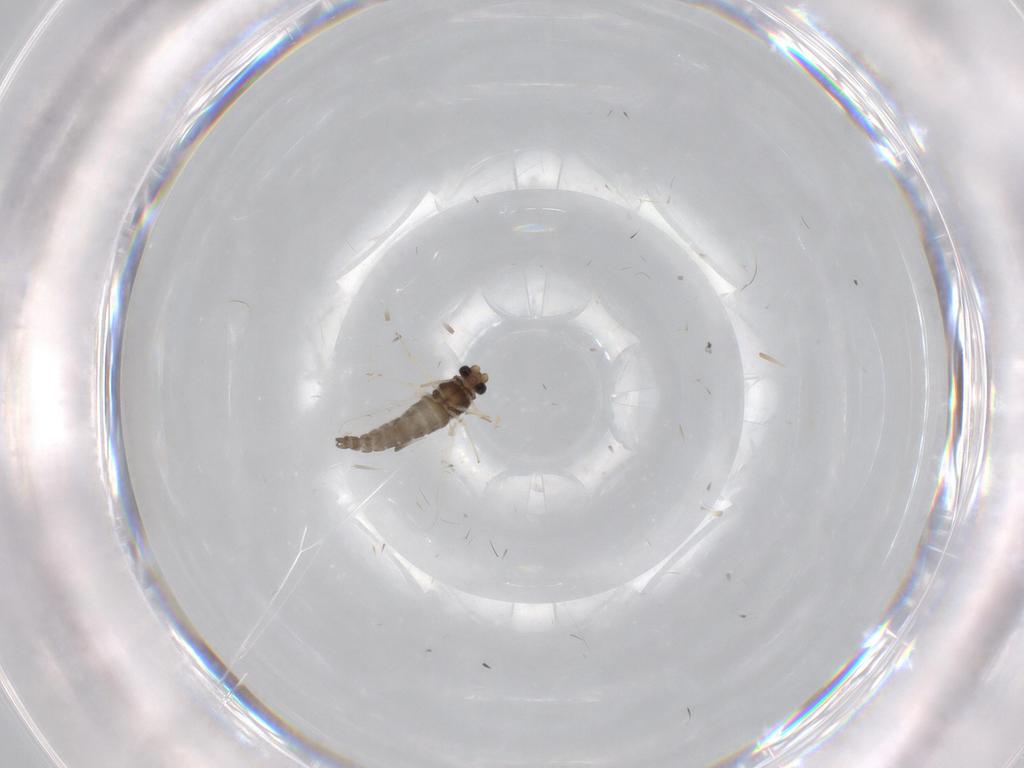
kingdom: Animalia
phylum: Arthropoda
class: Insecta
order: Diptera
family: Chironomidae
